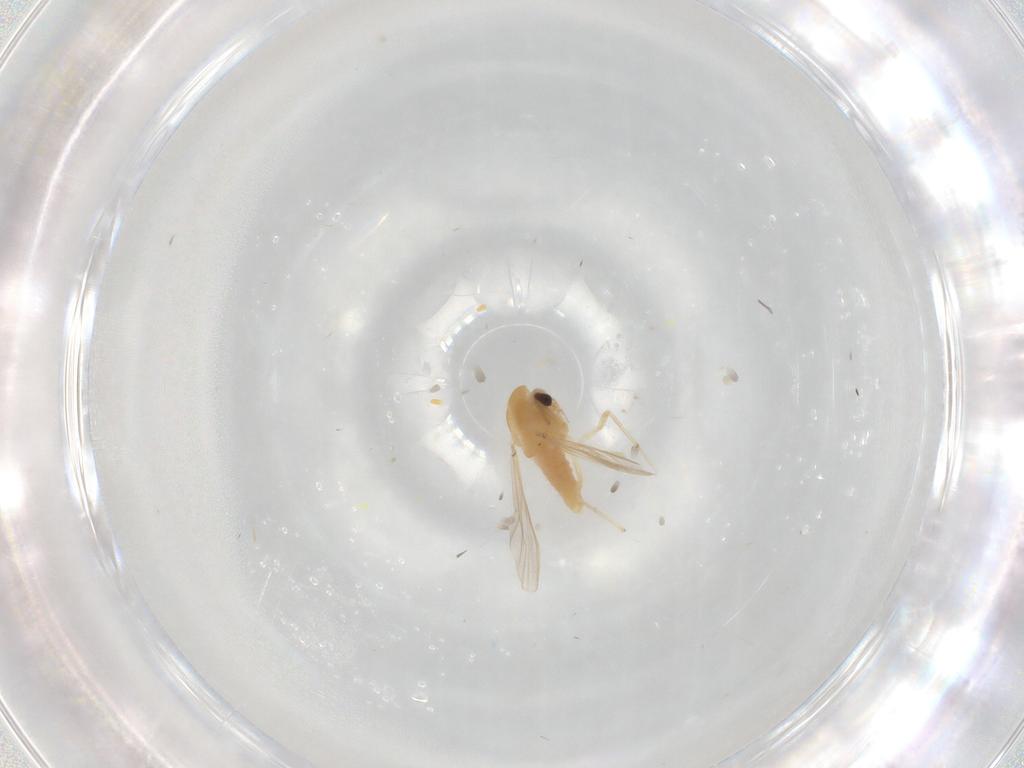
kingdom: Animalia
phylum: Arthropoda
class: Insecta
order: Diptera
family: Chironomidae
